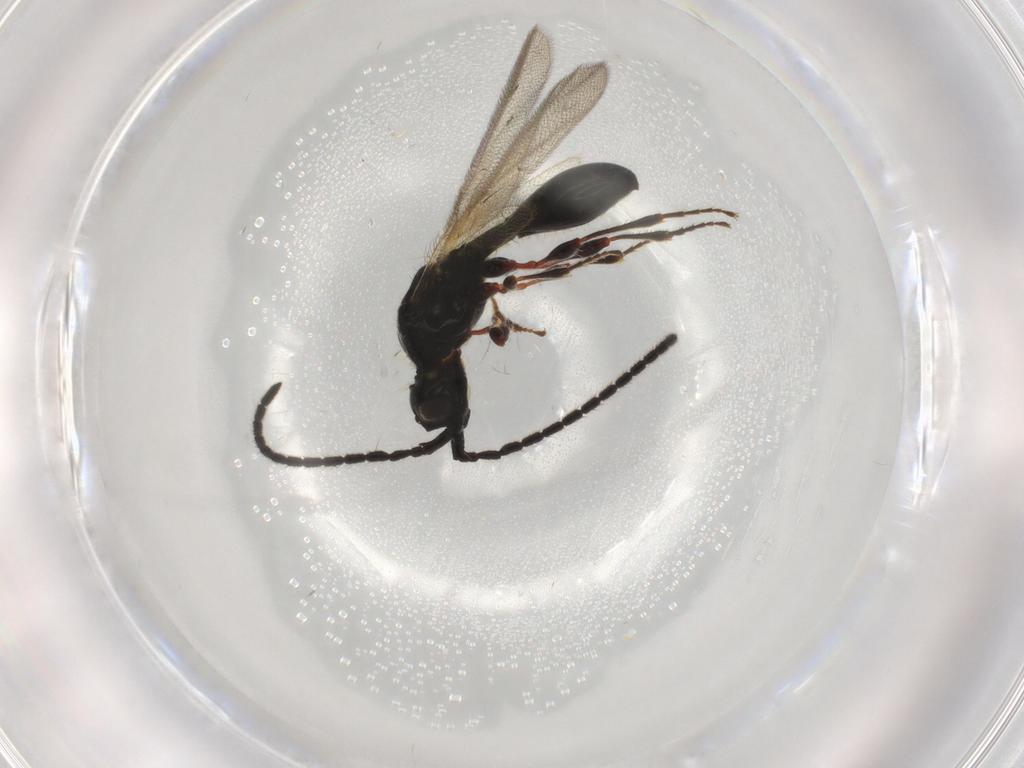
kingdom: Animalia
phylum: Arthropoda
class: Insecta
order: Hymenoptera
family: Diapriidae
